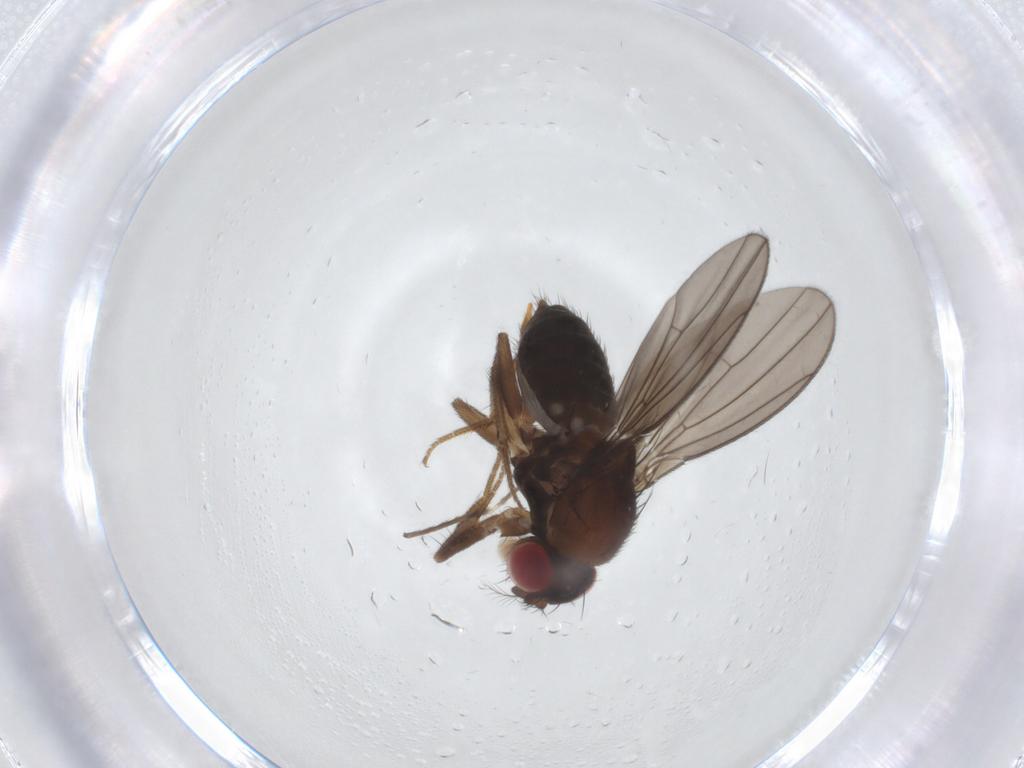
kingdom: Animalia
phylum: Arthropoda
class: Insecta
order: Diptera
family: Drosophilidae
